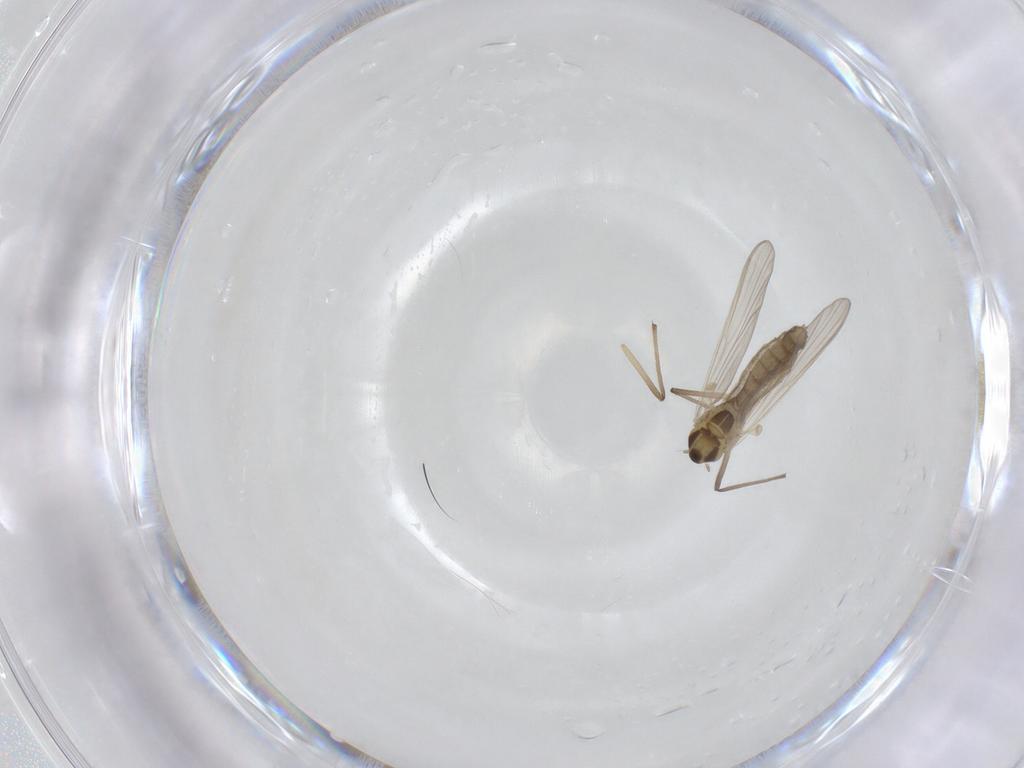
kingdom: Animalia
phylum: Arthropoda
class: Insecta
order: Diptera
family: Chironomidae
